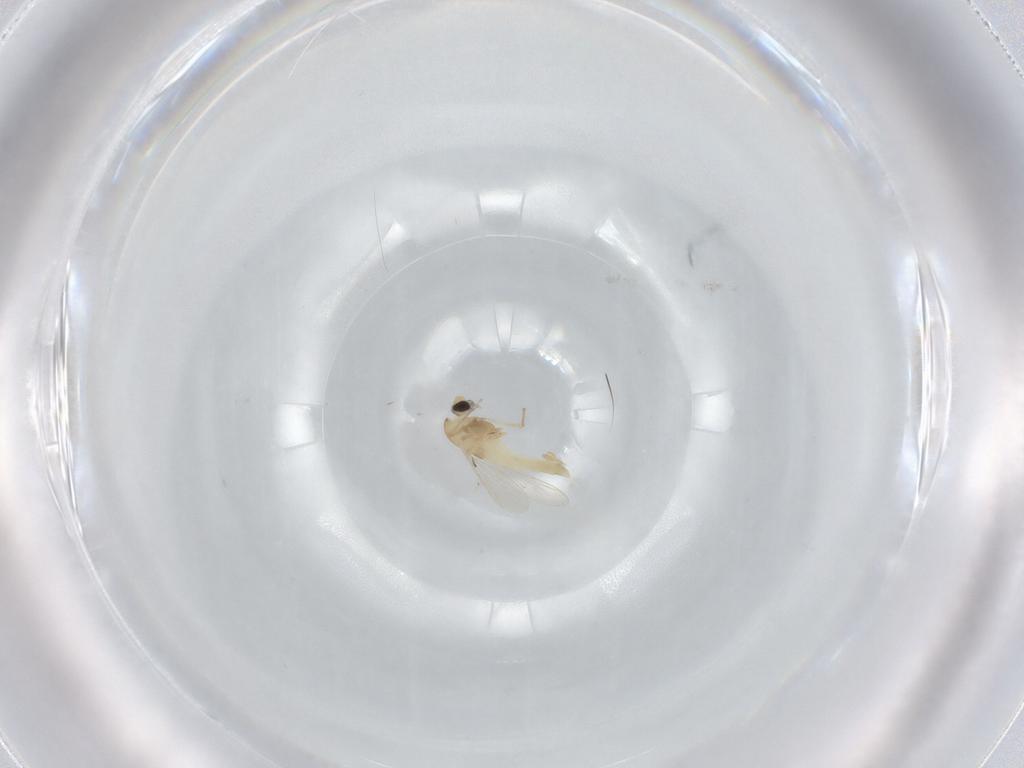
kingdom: Animalia
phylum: Arthropoda
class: Insecta
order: Diptera
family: Chironomidae
